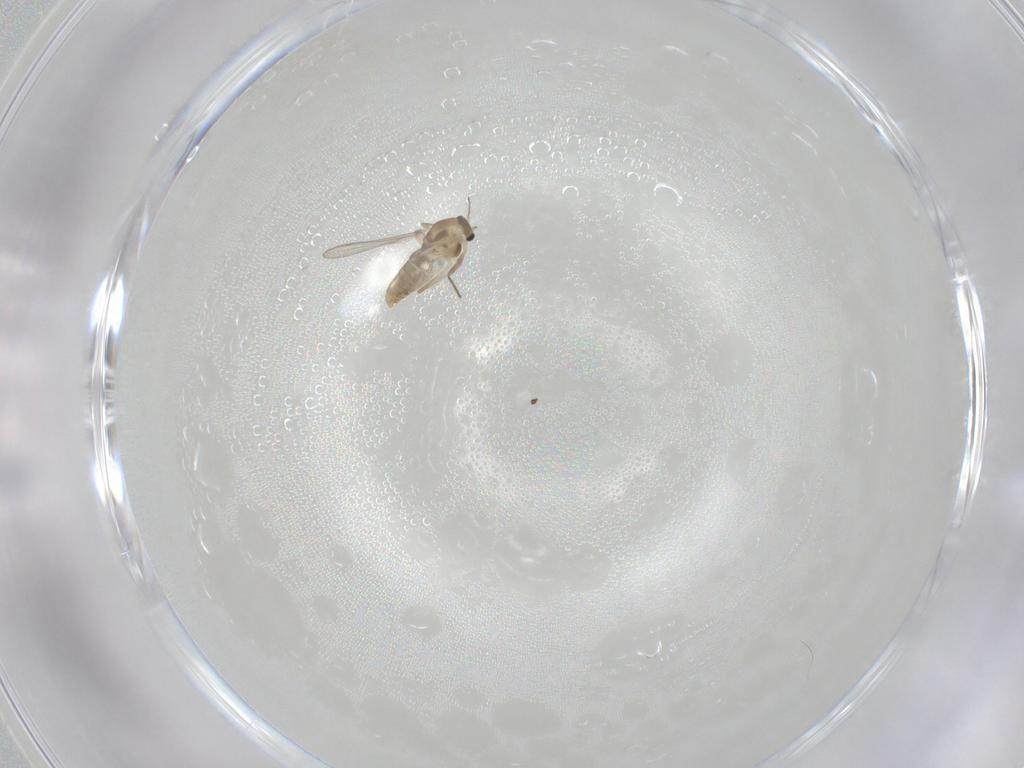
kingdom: Animalia
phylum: Arthropoda
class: Insecta
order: Diptera
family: Chironomidae
